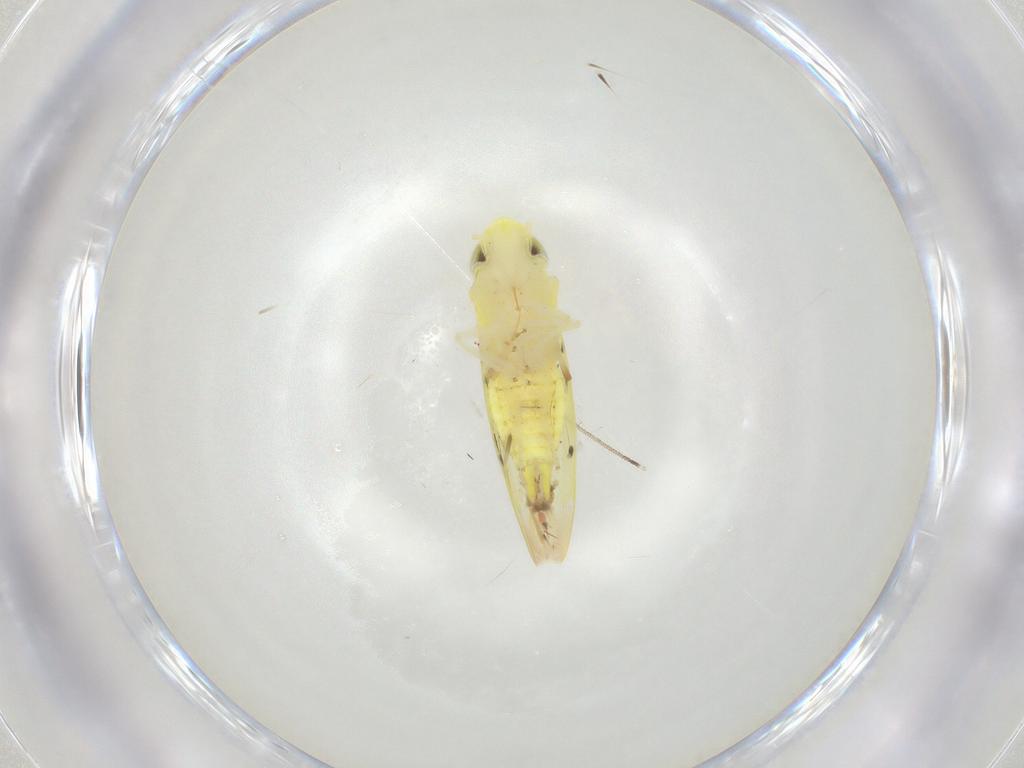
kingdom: Animalia
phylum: Arthropoda
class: Insecta
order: Hemiptera
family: Cicadellidae
